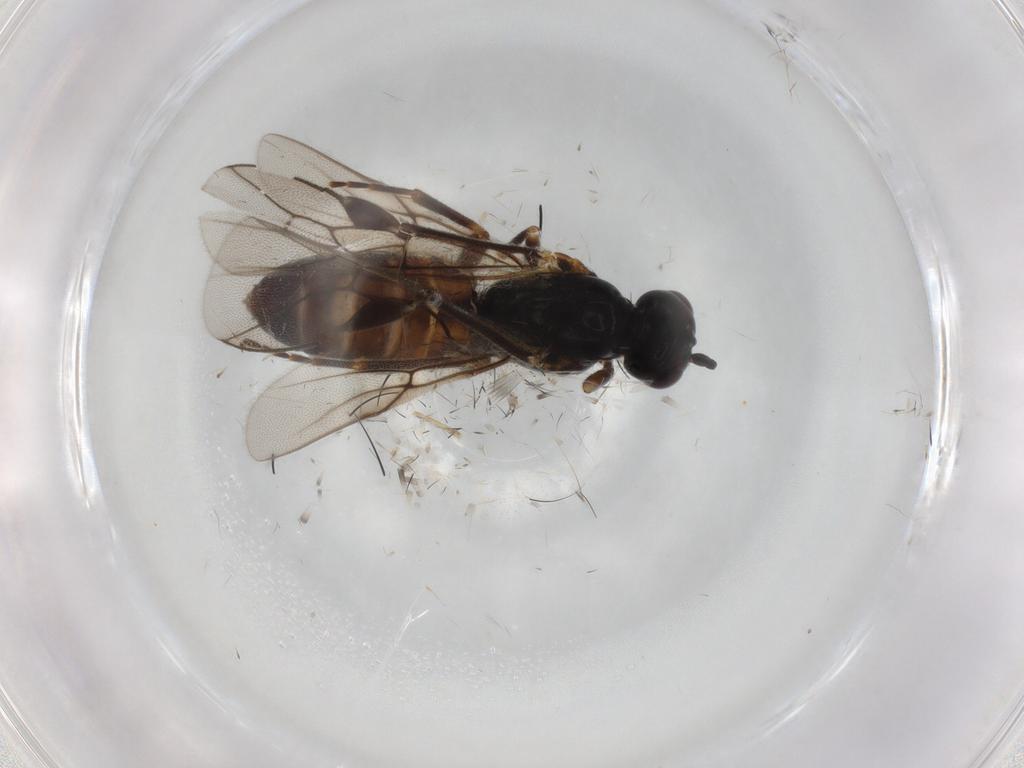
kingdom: Animalia
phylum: Arthropoda
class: Insecta
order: Hymenoptera
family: Braconidae
